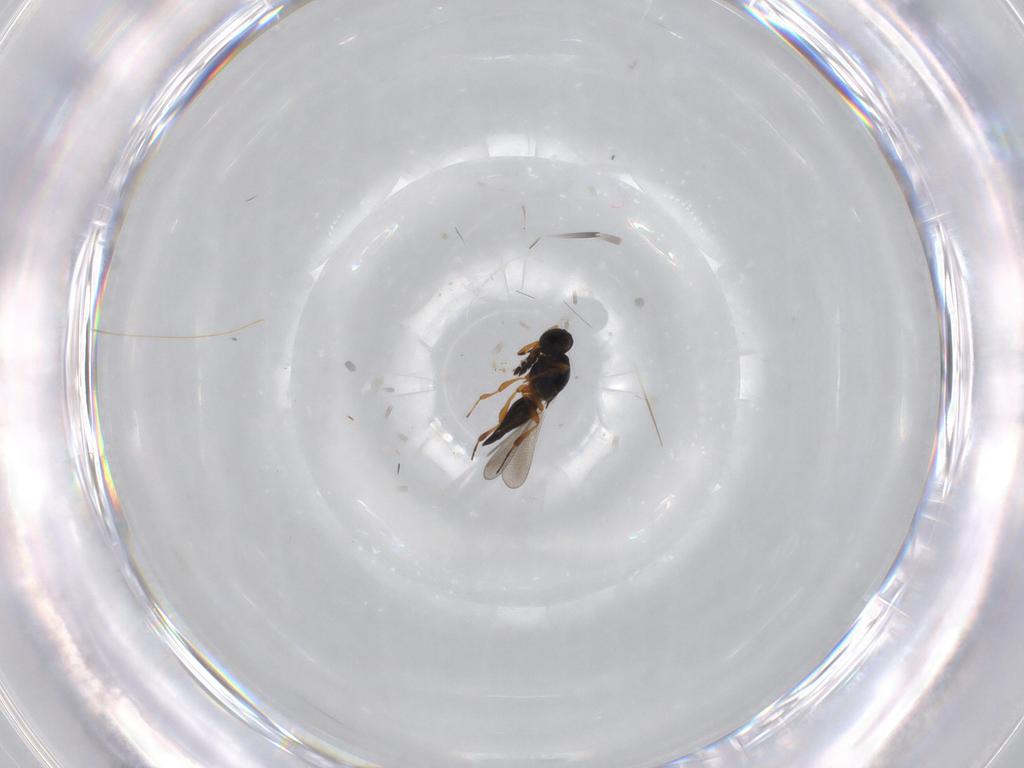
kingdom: Animalia
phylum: Arthropoda
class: Insecta
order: Hymenoptera
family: Platygastridae
